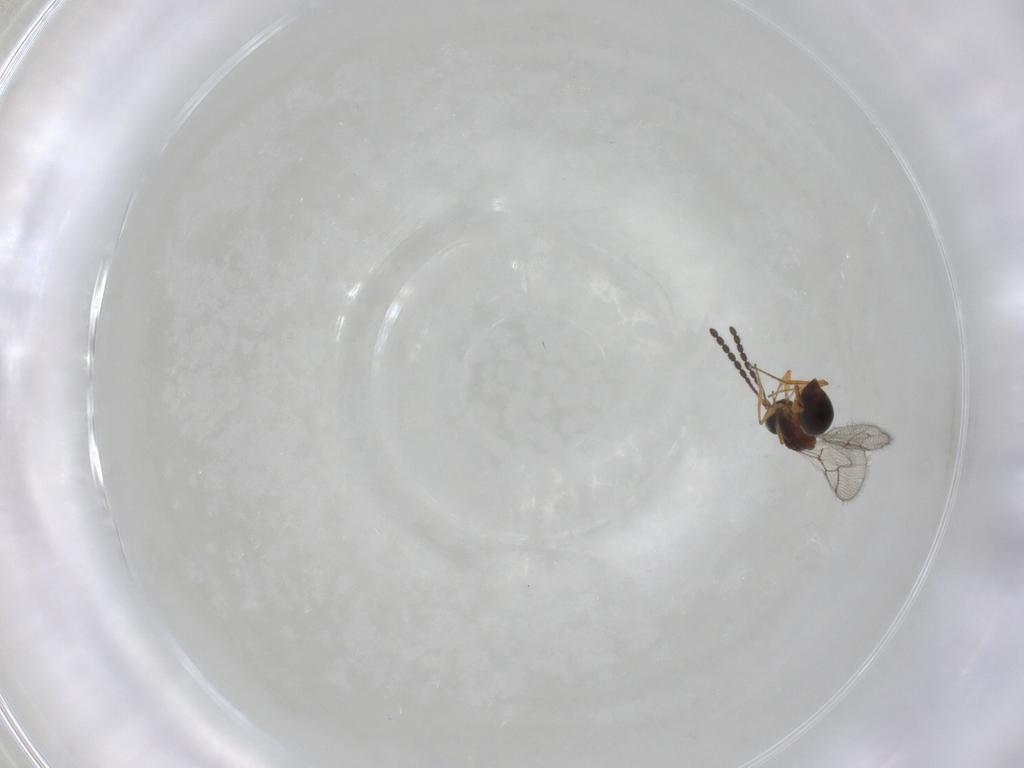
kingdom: Animalia
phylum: Arthropoda
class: Insecta
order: Hymenoptera
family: Figitidae
